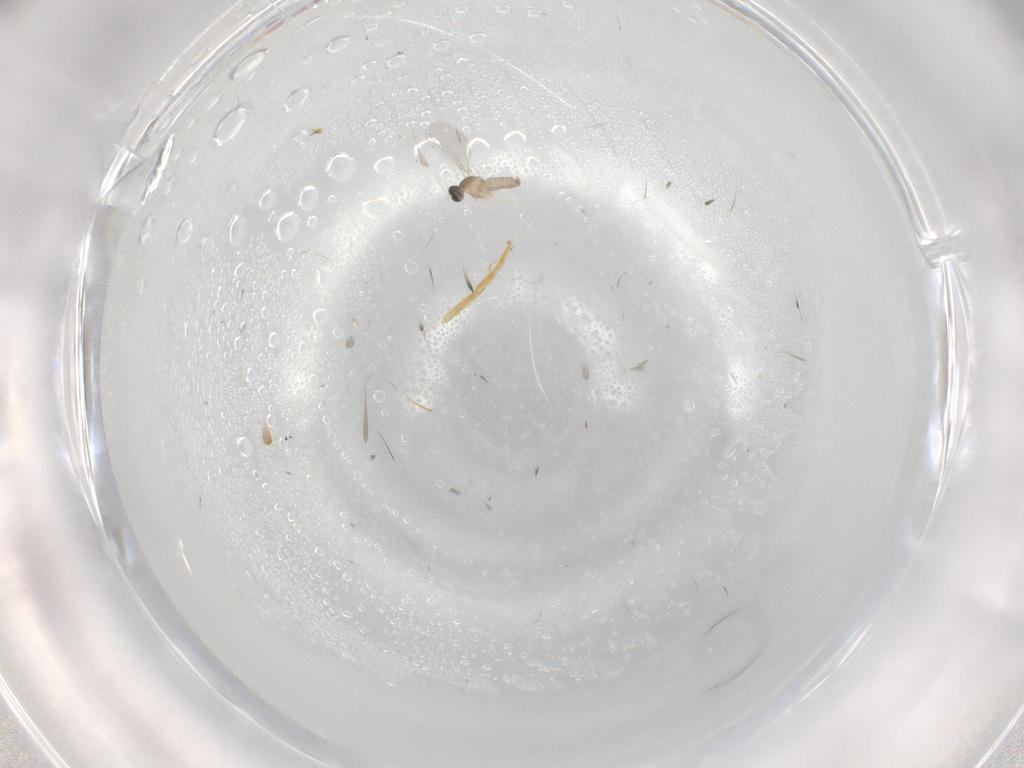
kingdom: Animalia
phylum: Arthropoda
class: Insecta
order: Diptera
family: Cecidomyiidae
